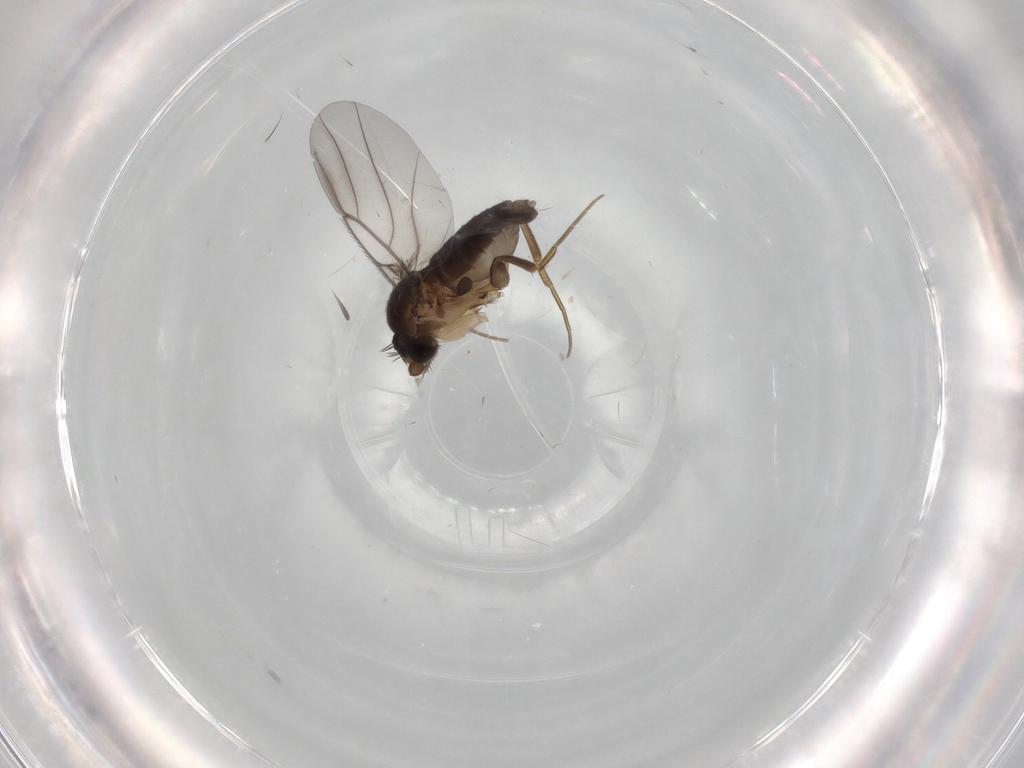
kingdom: Animalia
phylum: Arthropoda
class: Insecta
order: Diptera
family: Phoridae
